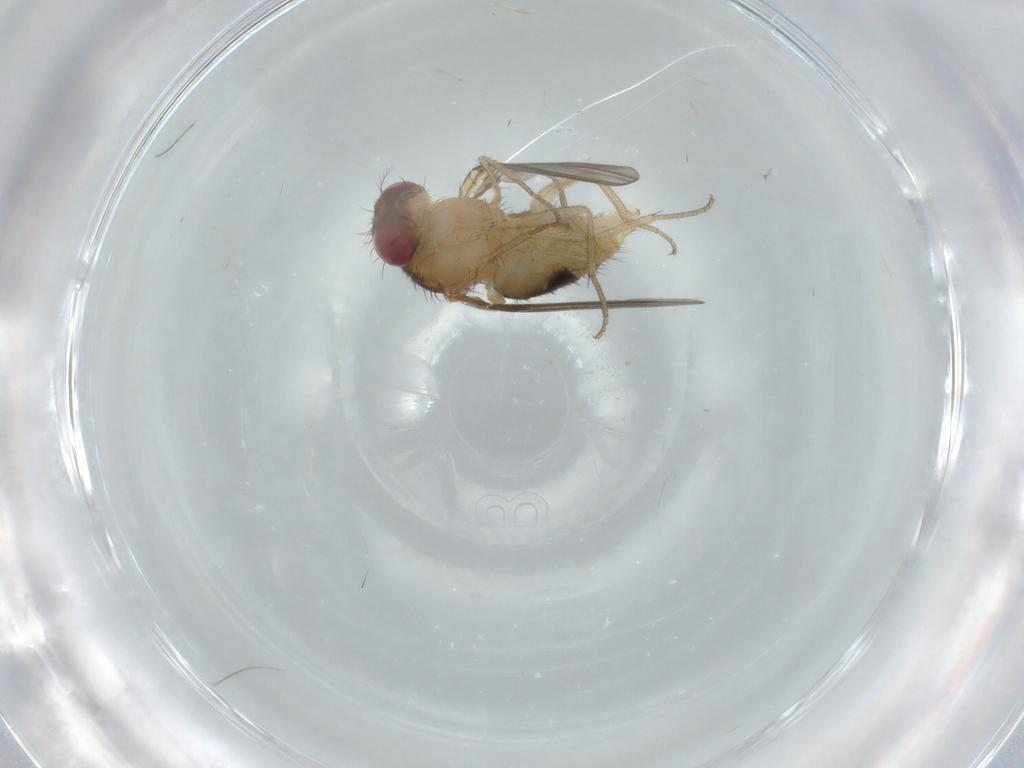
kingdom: Animalia
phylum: Arthropoda
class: Insecta
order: Diptera
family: Drosophilidae
